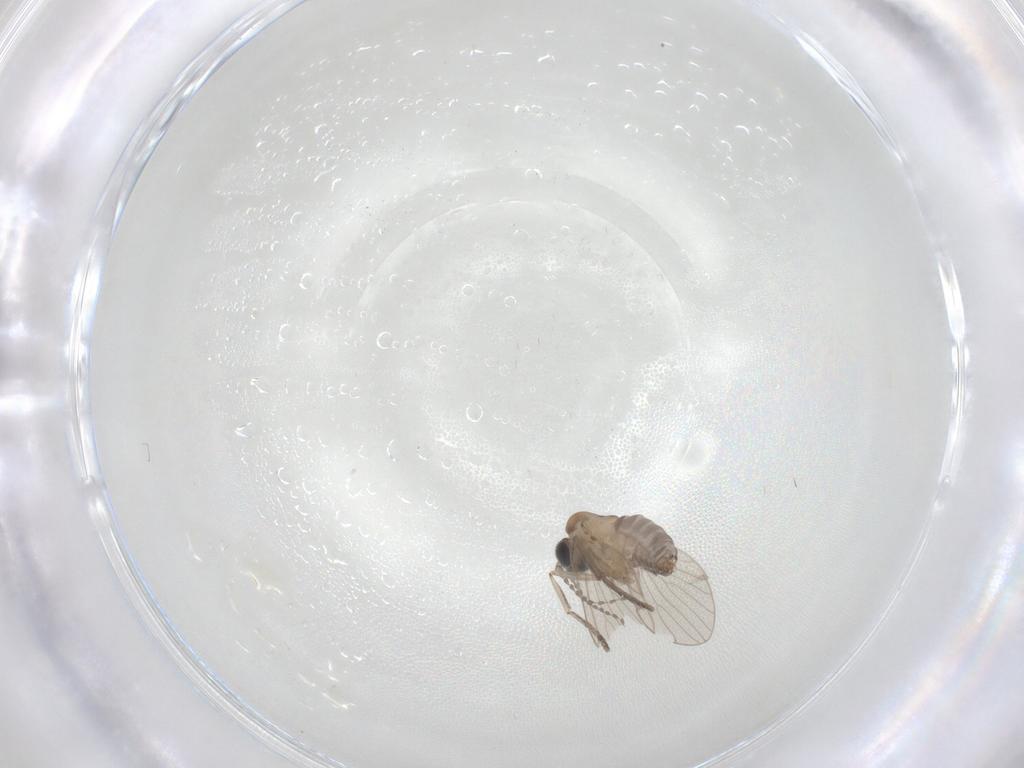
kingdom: Animalia
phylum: Arthropoda
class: Insecta
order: Diptera
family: Psychodidae
